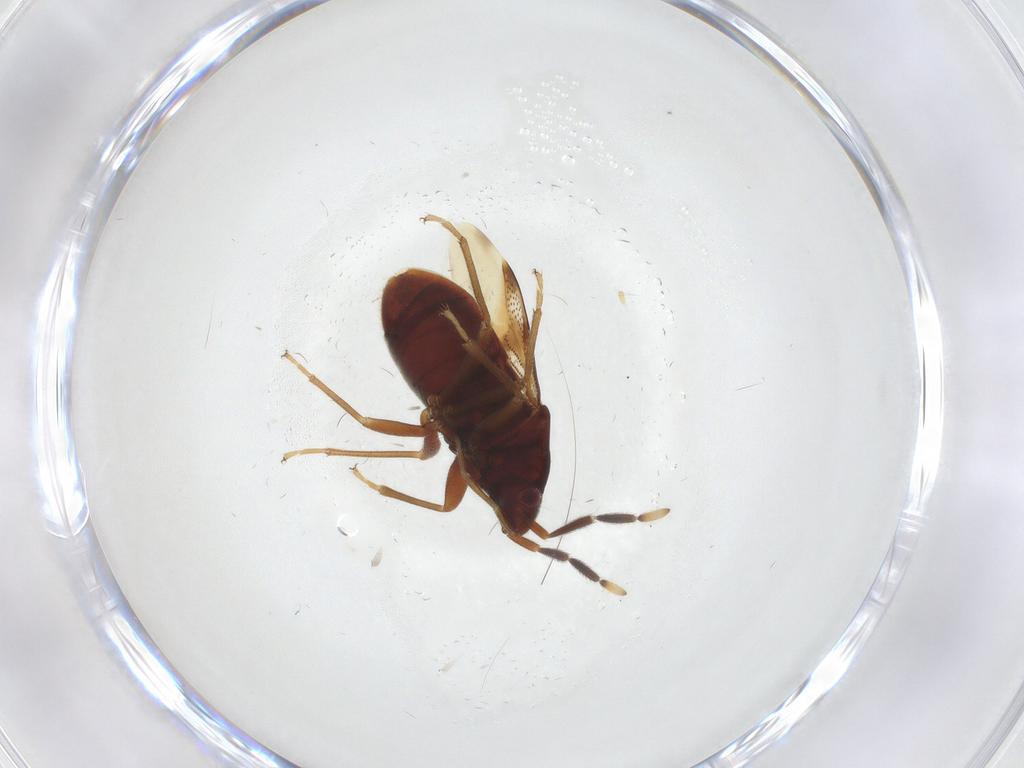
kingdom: Animalia
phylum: Arthropoda
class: Insecta
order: Hemiptera
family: Rhyparochromidae
